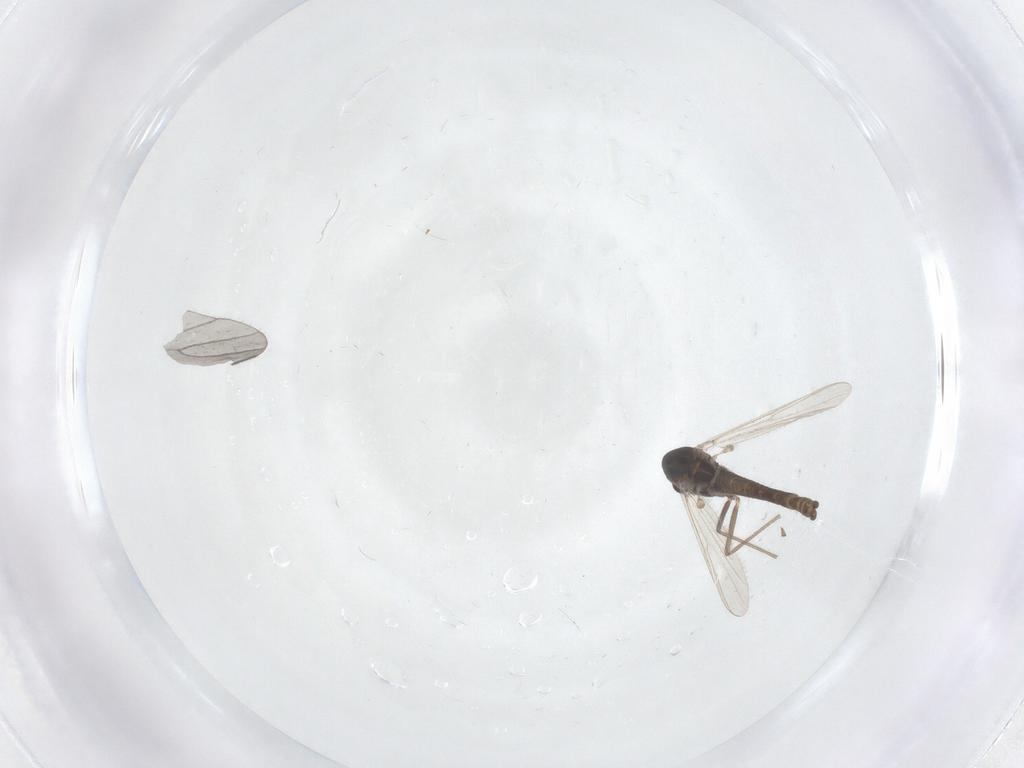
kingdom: Animalia
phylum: Arthropoda
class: Insecta
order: Diptera
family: Chironomidae
